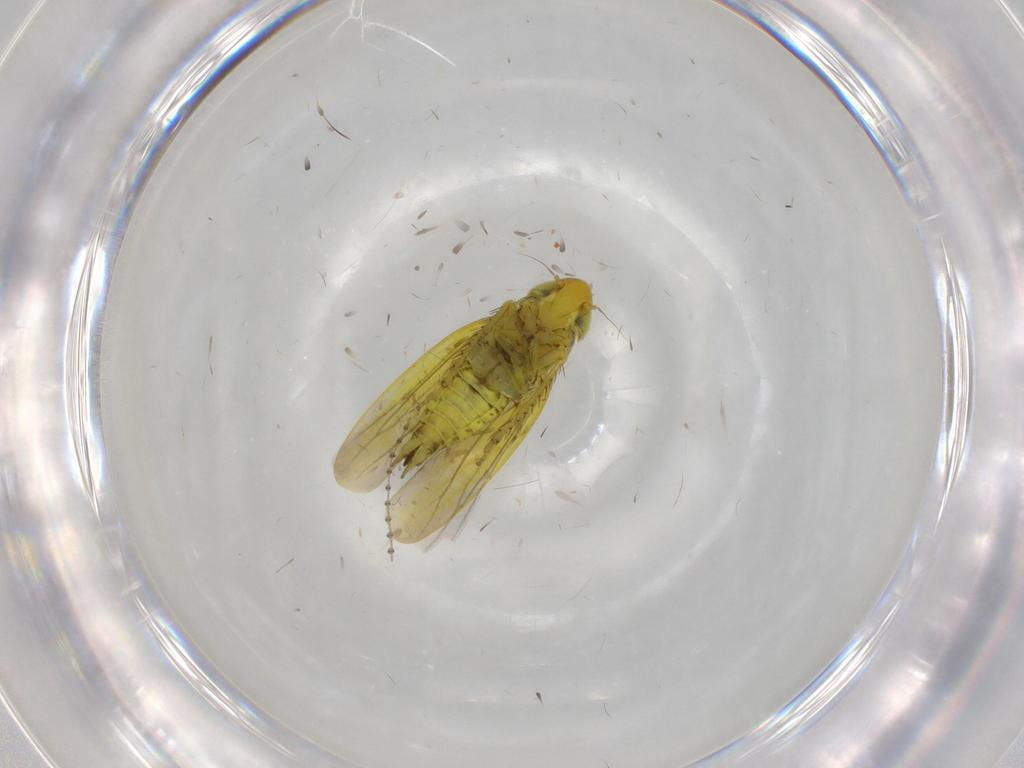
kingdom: Animalia
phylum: Arthropoda
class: Insecta
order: Hemiptera
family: Cicadellidae
